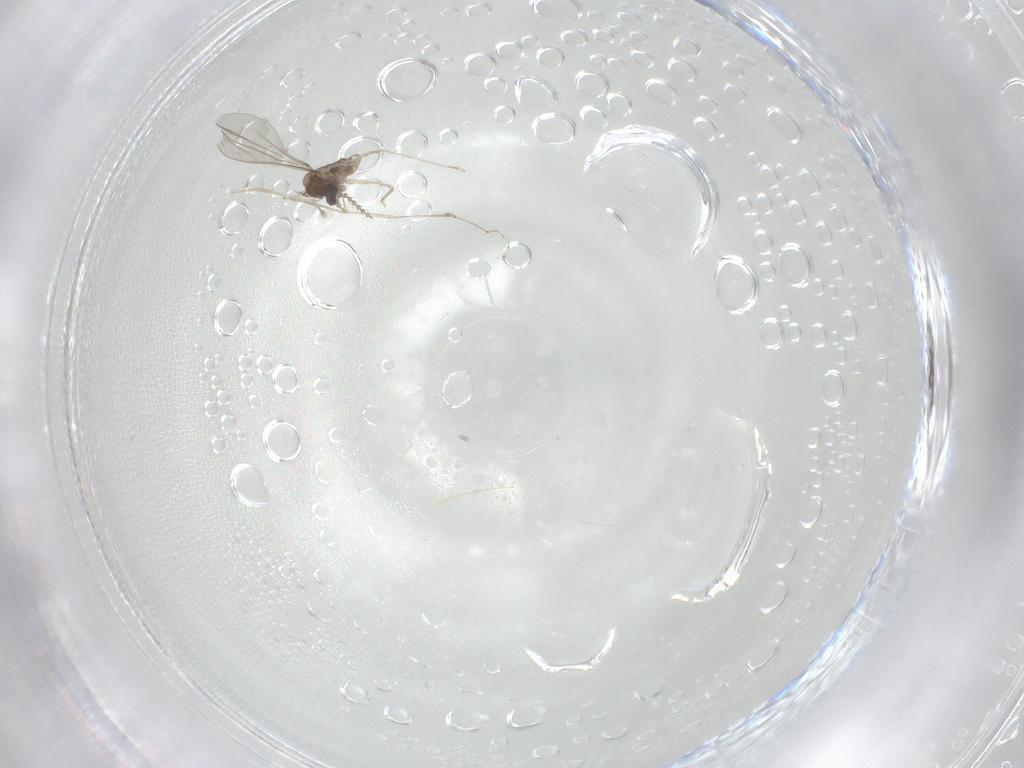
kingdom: Animalia
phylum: Arthropoda
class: Insecta
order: Diptera
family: Cecidomyiidae
